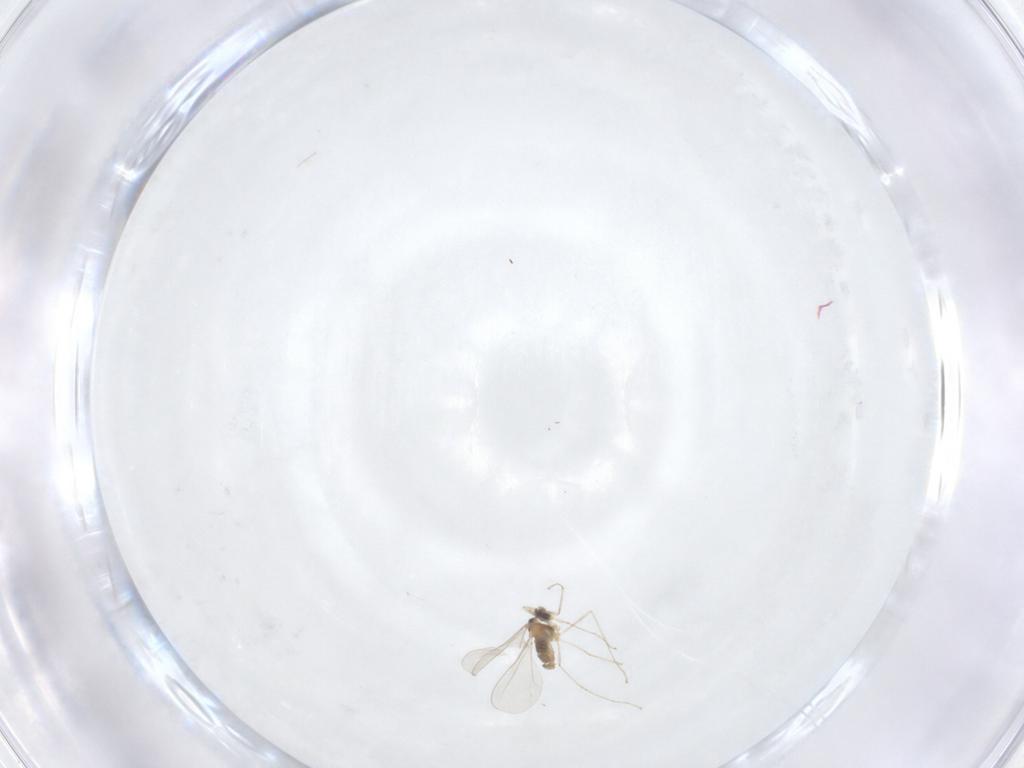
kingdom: Animalia
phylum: Arthropoda
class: Insecta
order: Diptera
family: Cecidomyiidae
